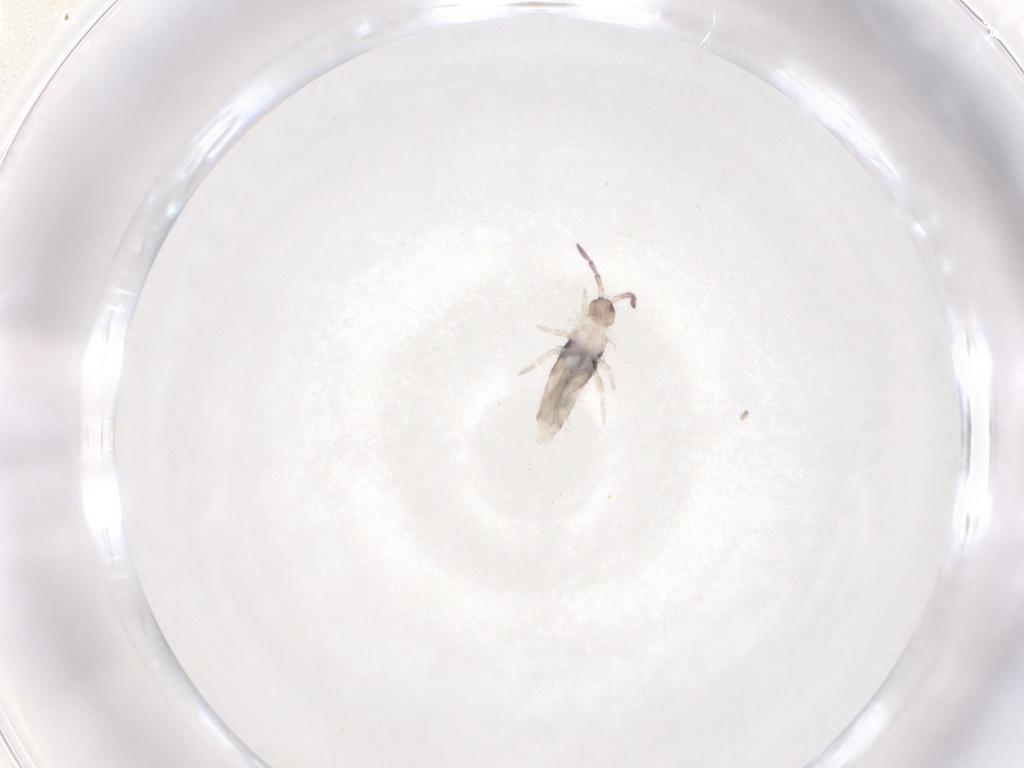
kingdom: Animalia
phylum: Arthropoda
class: Collembola
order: Entomobryomorpha
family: Entomobryidae
